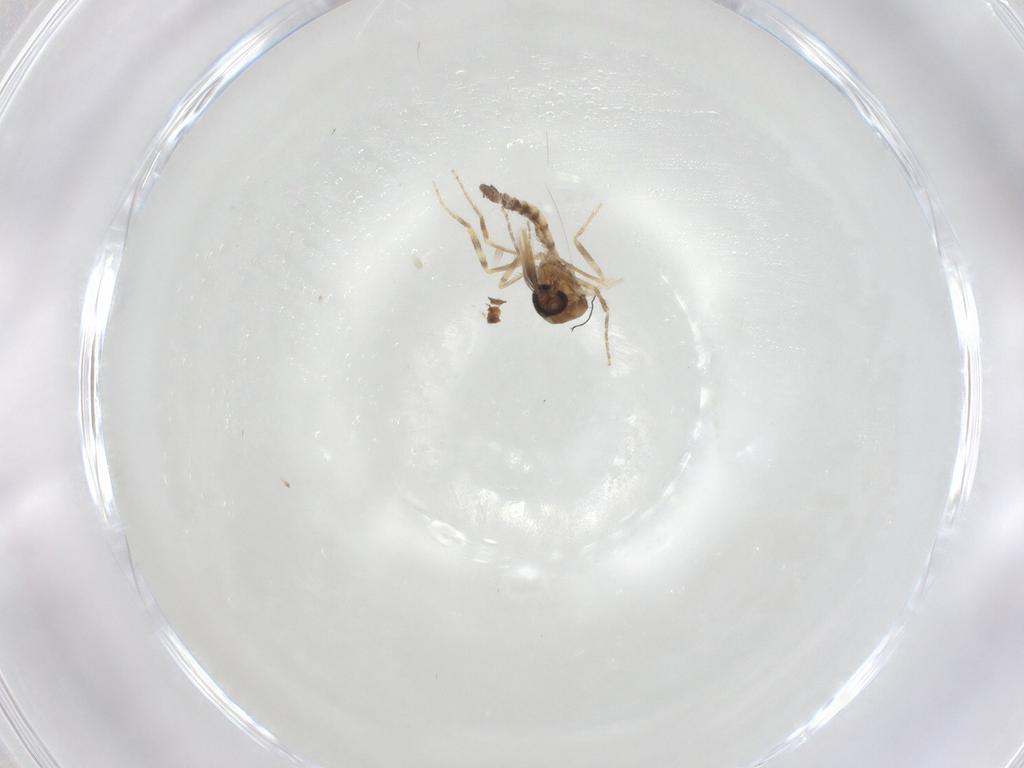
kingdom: Animalia
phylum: Arthropoda
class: Insecta
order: Diptera
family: Ceratopogonidae
